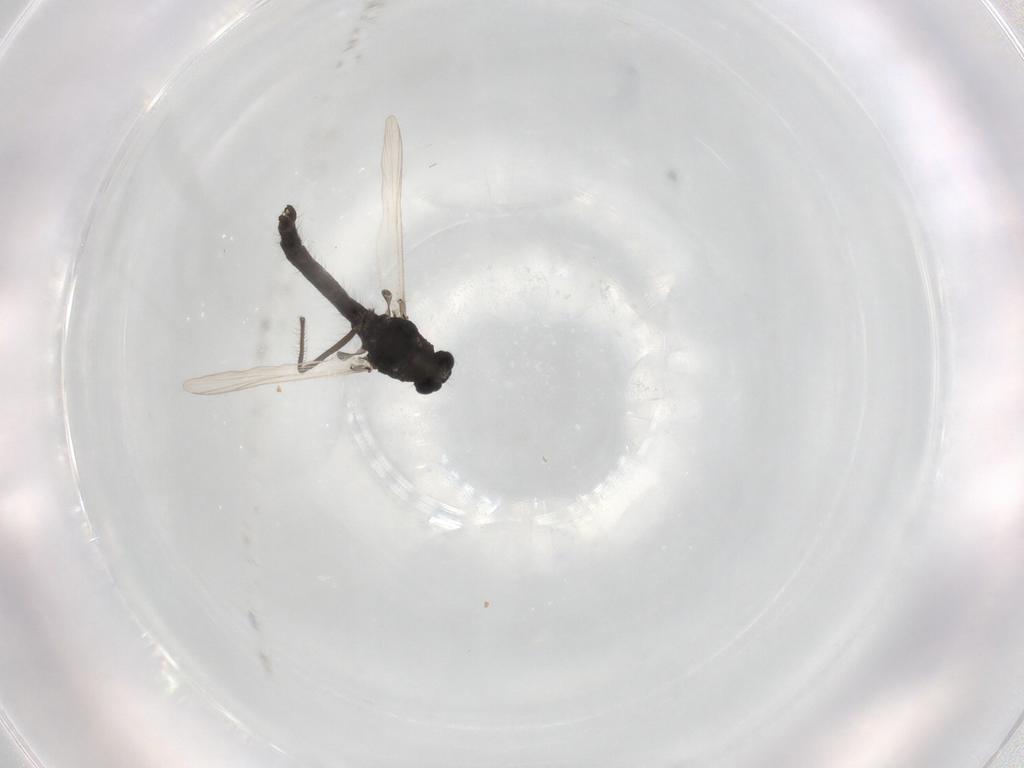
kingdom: Animalia
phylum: Arthropoda
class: Insecta
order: Diptera
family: Chironomidae
